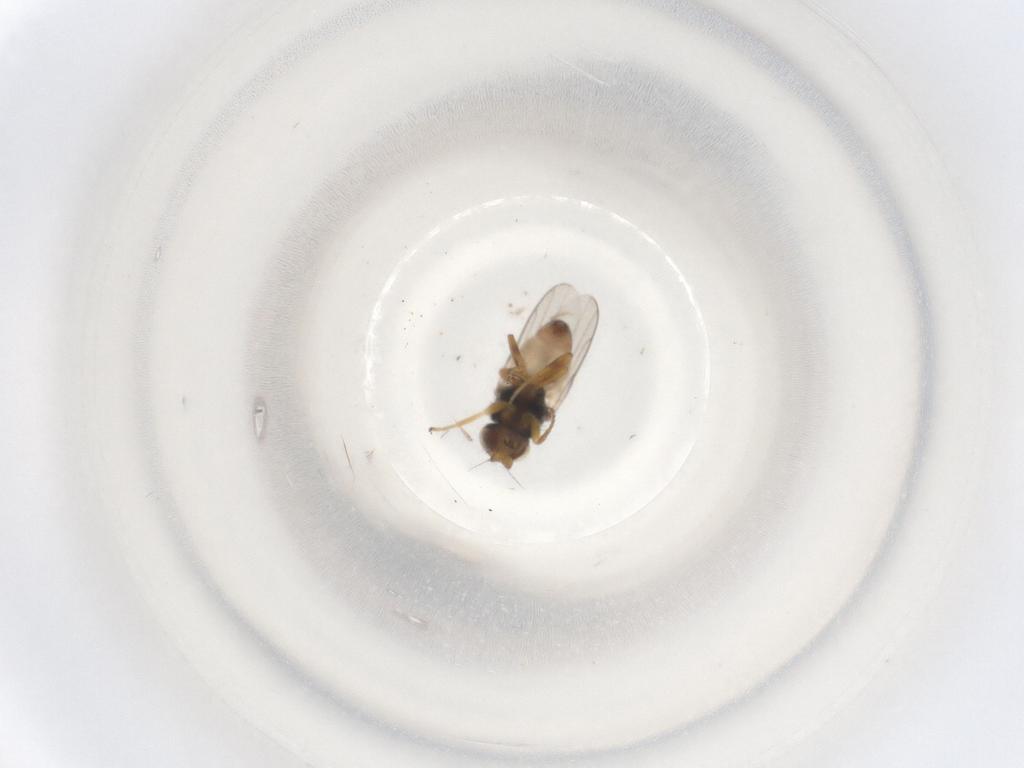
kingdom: Animalia
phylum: Arthropoda
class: Insecta
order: Diptera
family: Chloropidae
